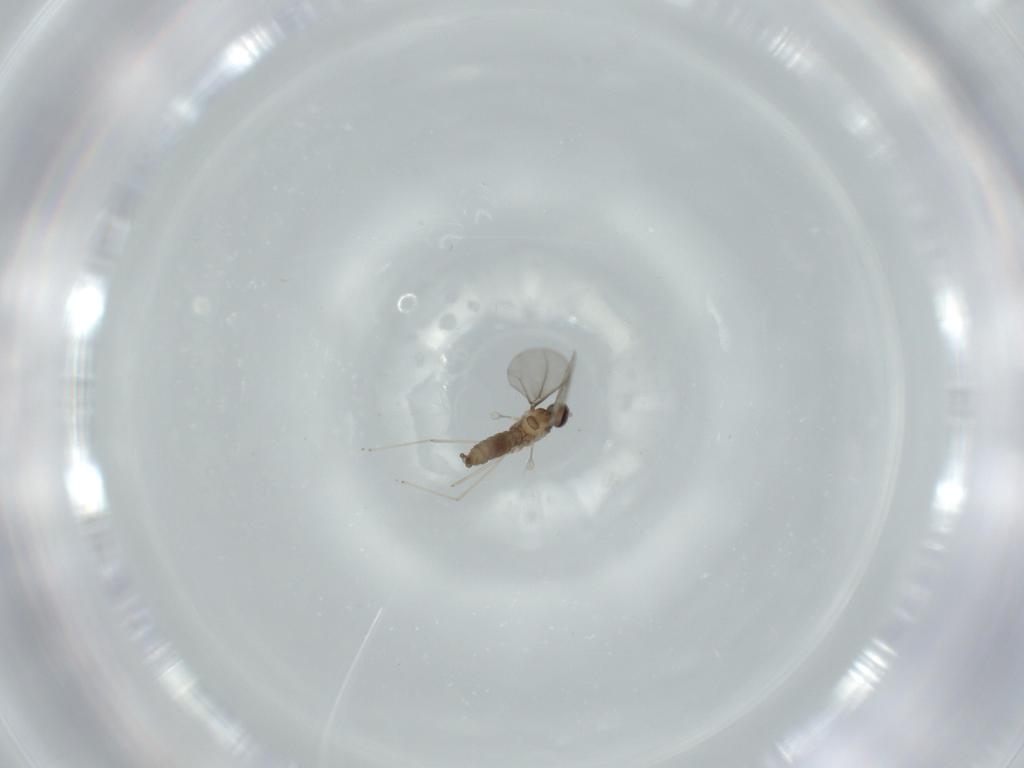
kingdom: Animalia
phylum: Arthropoda
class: Insecta
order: Diptera
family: Cecidomyiidae
